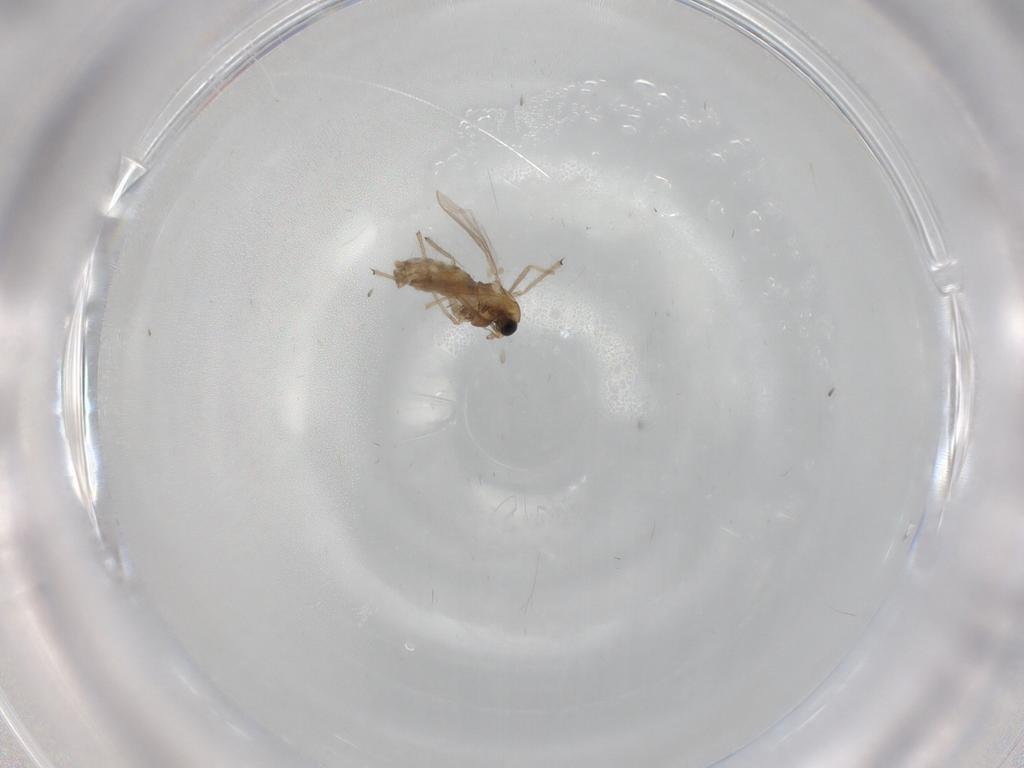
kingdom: Animalia
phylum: Arthropoda
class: Insecta
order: Diptera
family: Chironomidae
